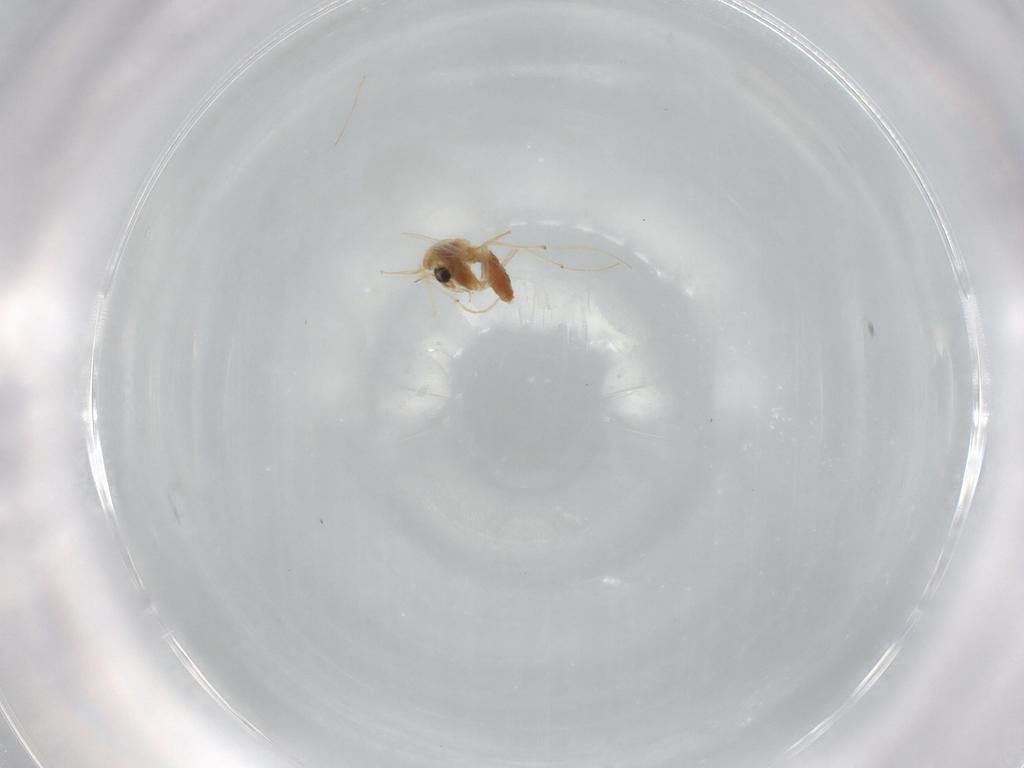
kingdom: Animalia
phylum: Arthropoda
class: Insecta
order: Diptera
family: Chironomidae
